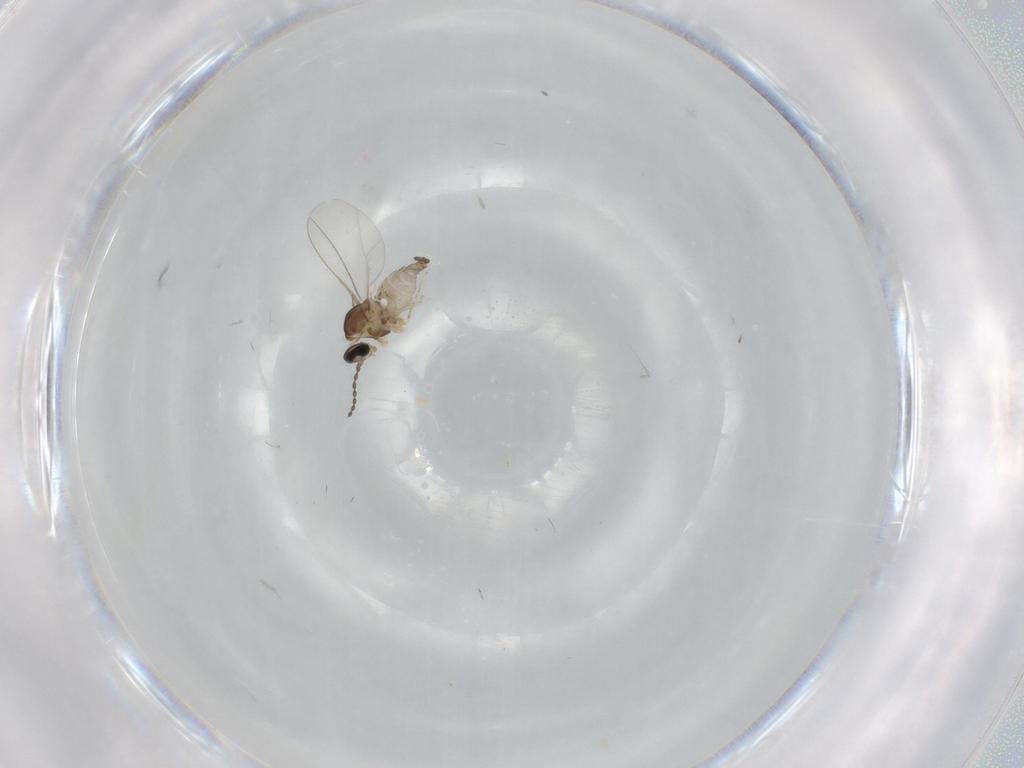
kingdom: Animalia
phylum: Arthropoda
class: Insecta
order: Diptera
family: Cecidomyiidae
